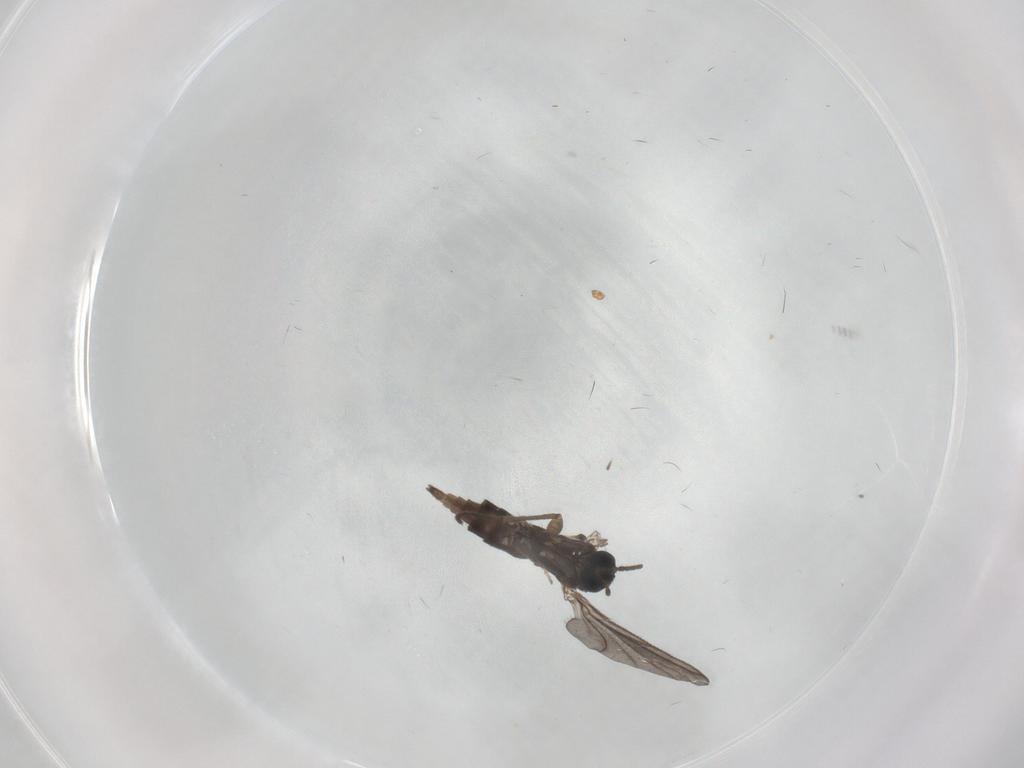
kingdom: Animalia
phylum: Arthropoda
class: Insecta
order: Diptera
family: Sciaridae
